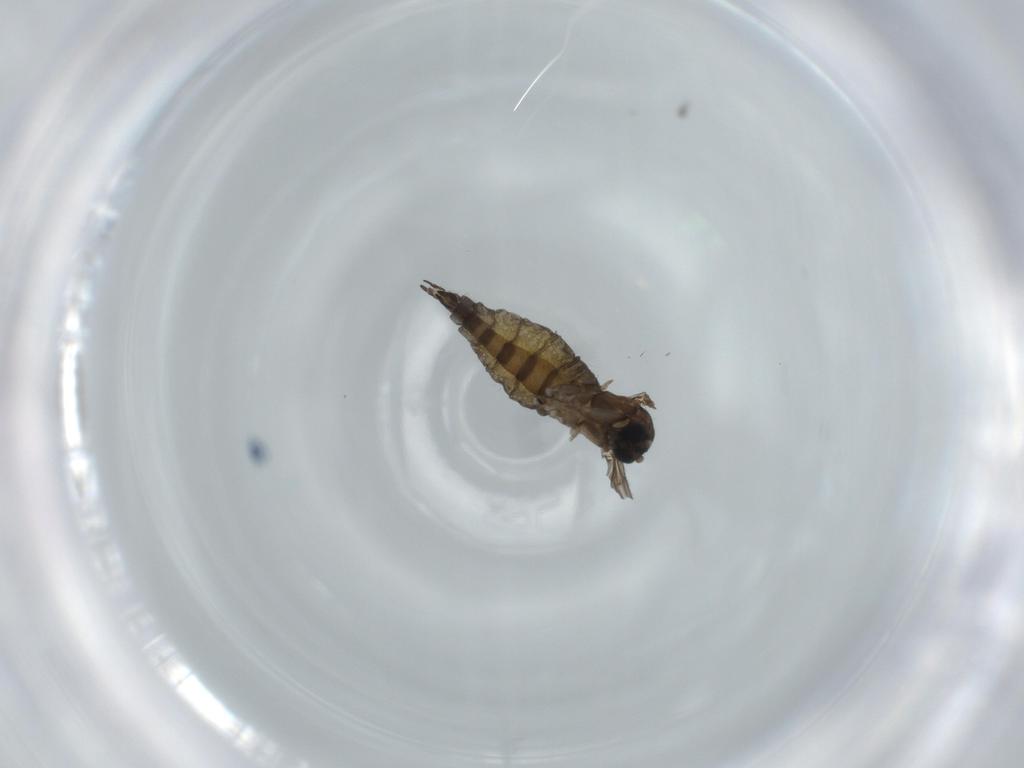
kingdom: Animalia
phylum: Arthropoda
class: Insecta
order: Diptera
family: Sciaridae
